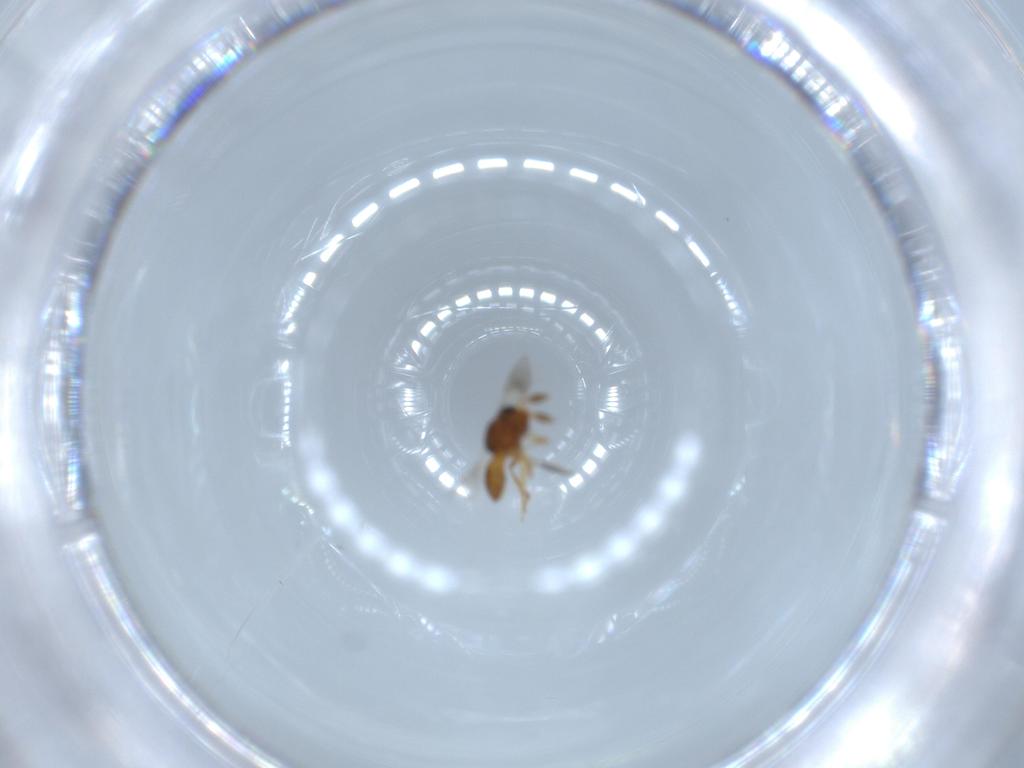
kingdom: Animalia
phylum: Arthropoda
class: Insecta
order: Hymenoptera
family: Scelionidae
